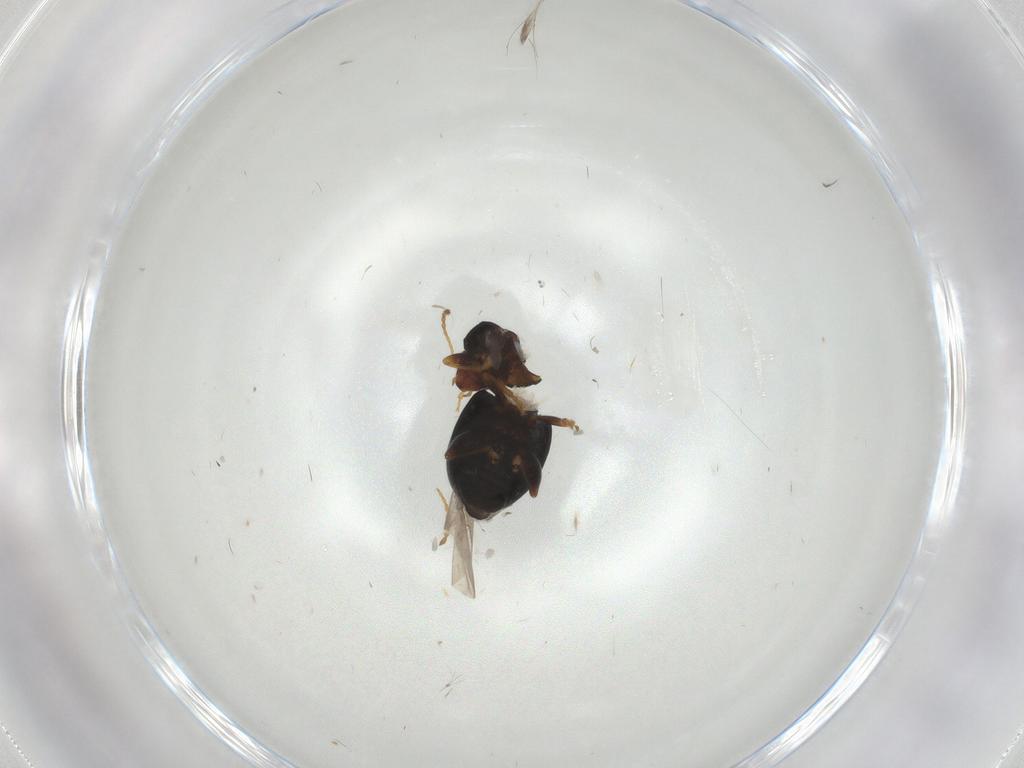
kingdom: Animalia
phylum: Arthropoda
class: Insecta
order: Coleoptera
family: Chrysomelidae
